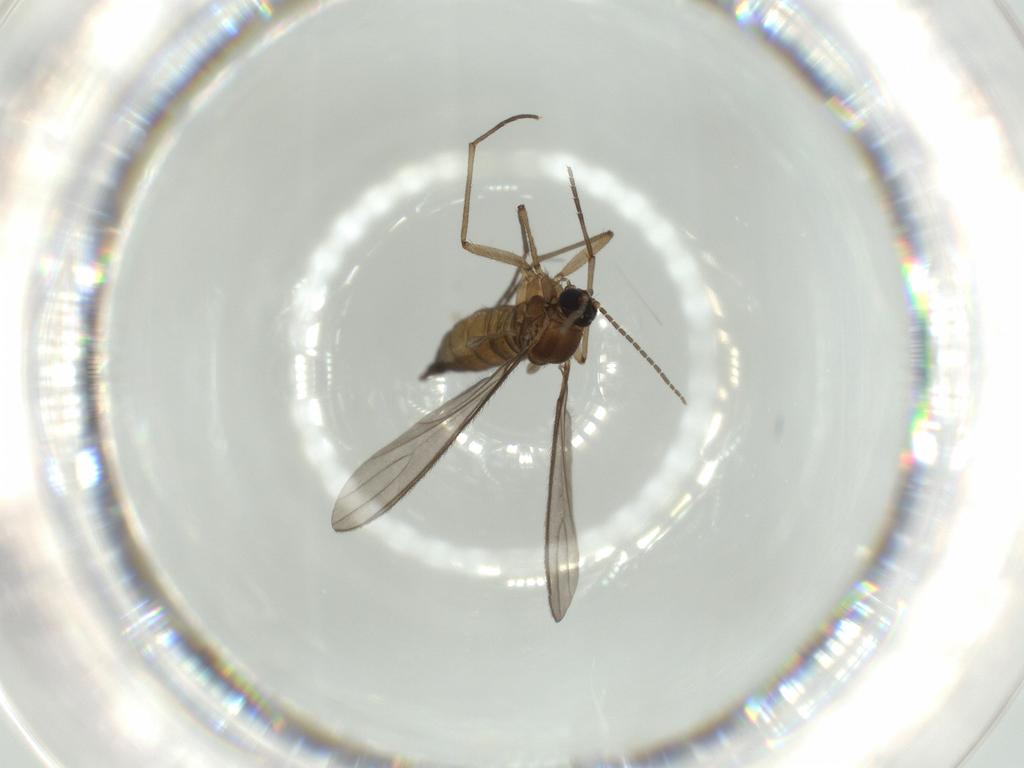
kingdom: Animalia
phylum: Arthropoda
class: Insecta
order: Diptera
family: Sciaridae
